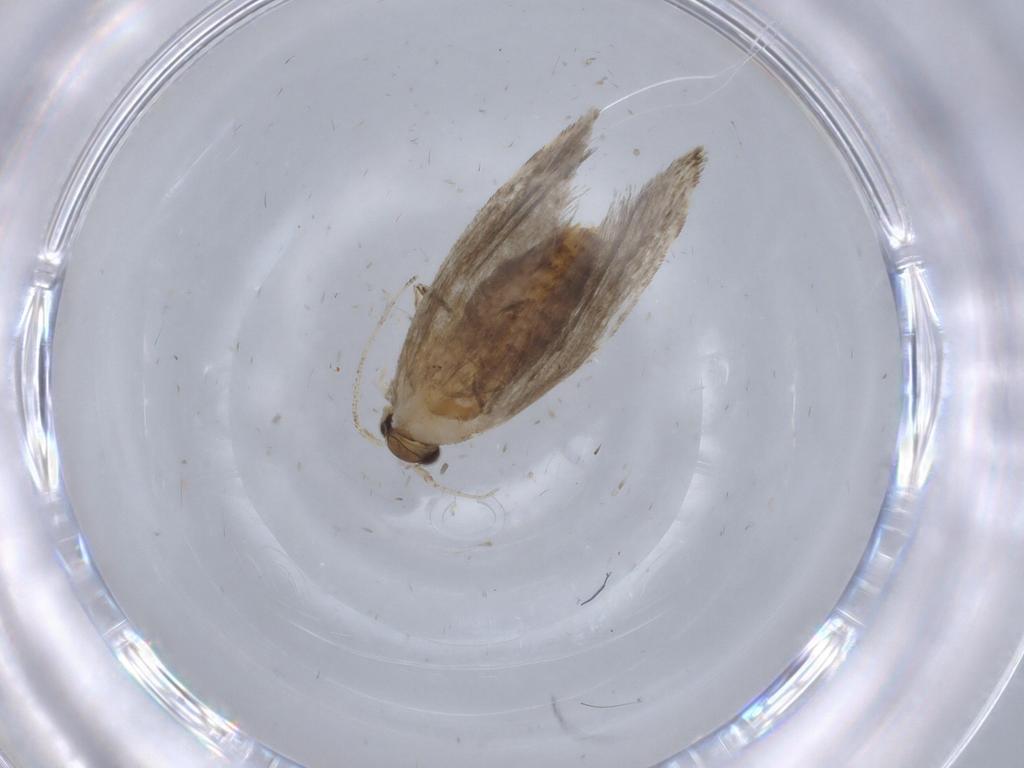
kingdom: Animalia
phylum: Arthropoda
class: Insecta
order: Lepidoptera
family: Tineidae
